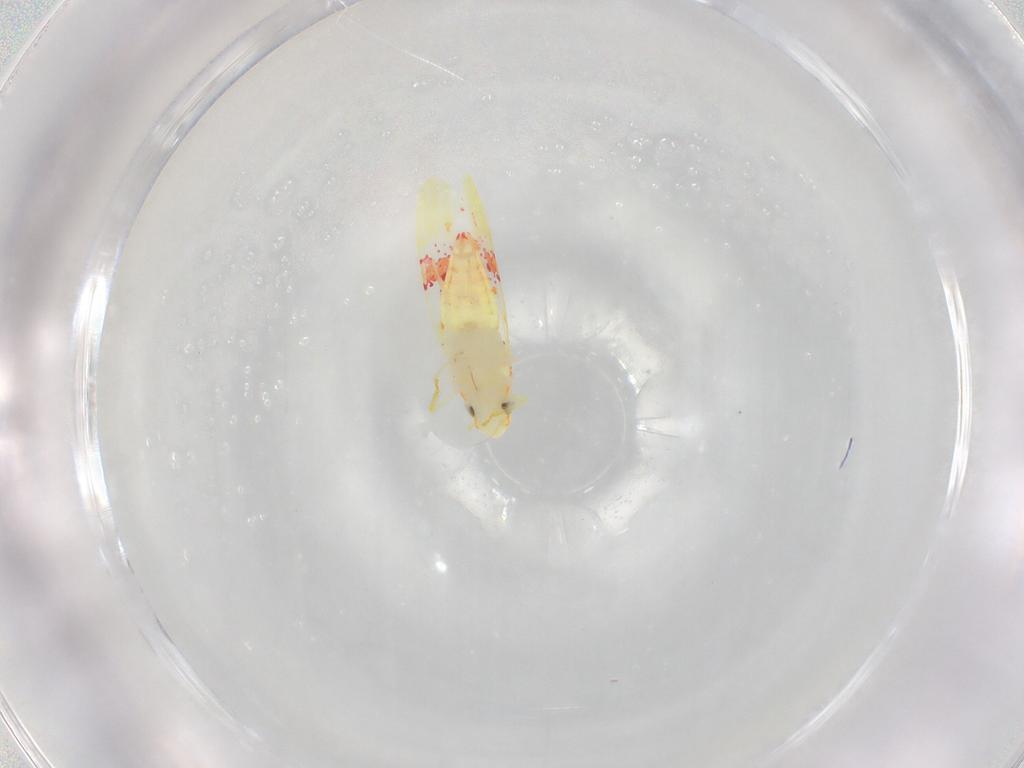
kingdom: Animalia
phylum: Arthropoda
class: Insecta
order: Hemiptera
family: Cicadellidae
